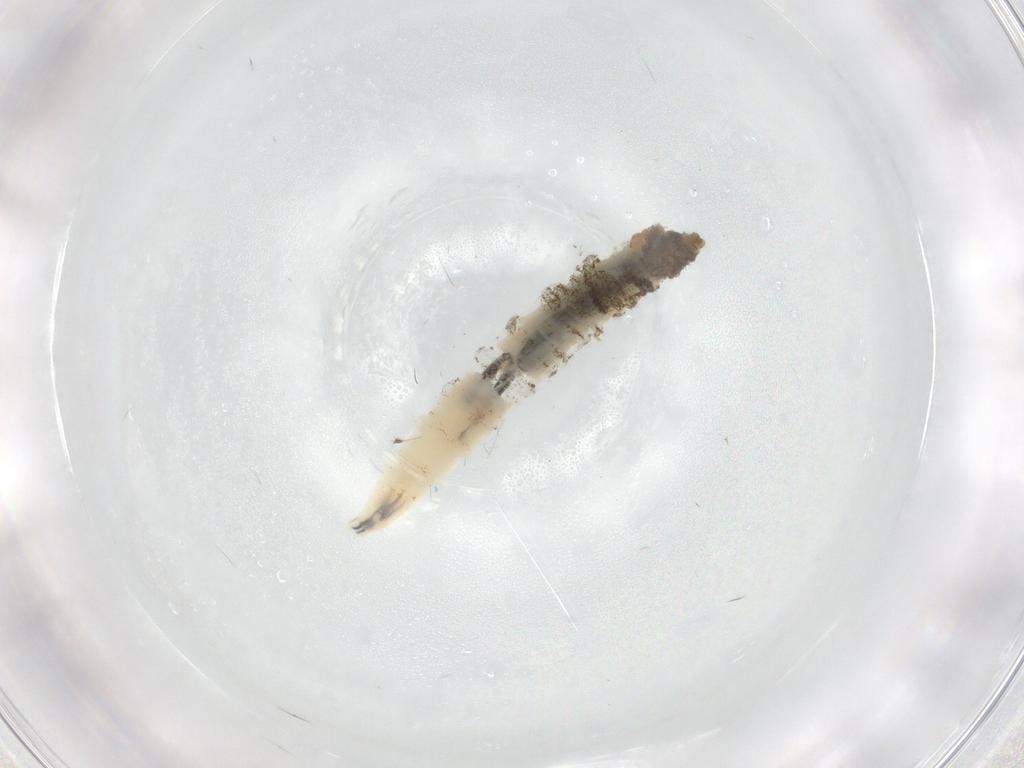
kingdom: Animalia
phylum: Arthropoda
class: Insecta
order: Diptera
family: Chironomidae
